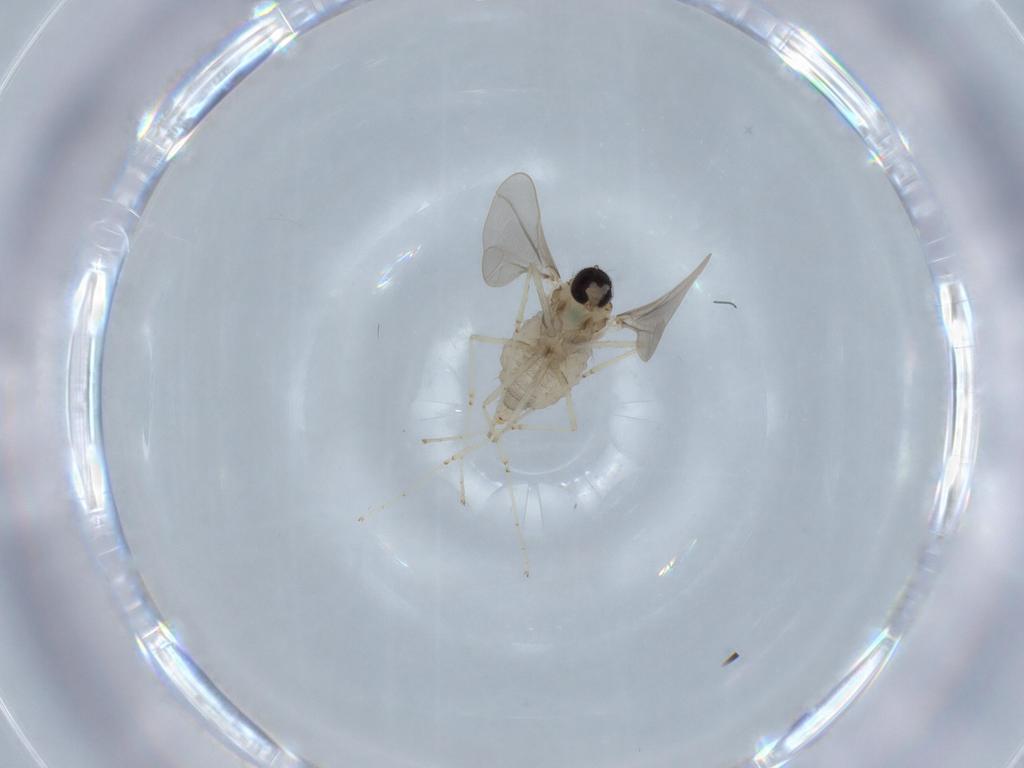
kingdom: Animalia
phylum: Arthropoda
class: Insecta
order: Diptera
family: Cecidomyiidae
